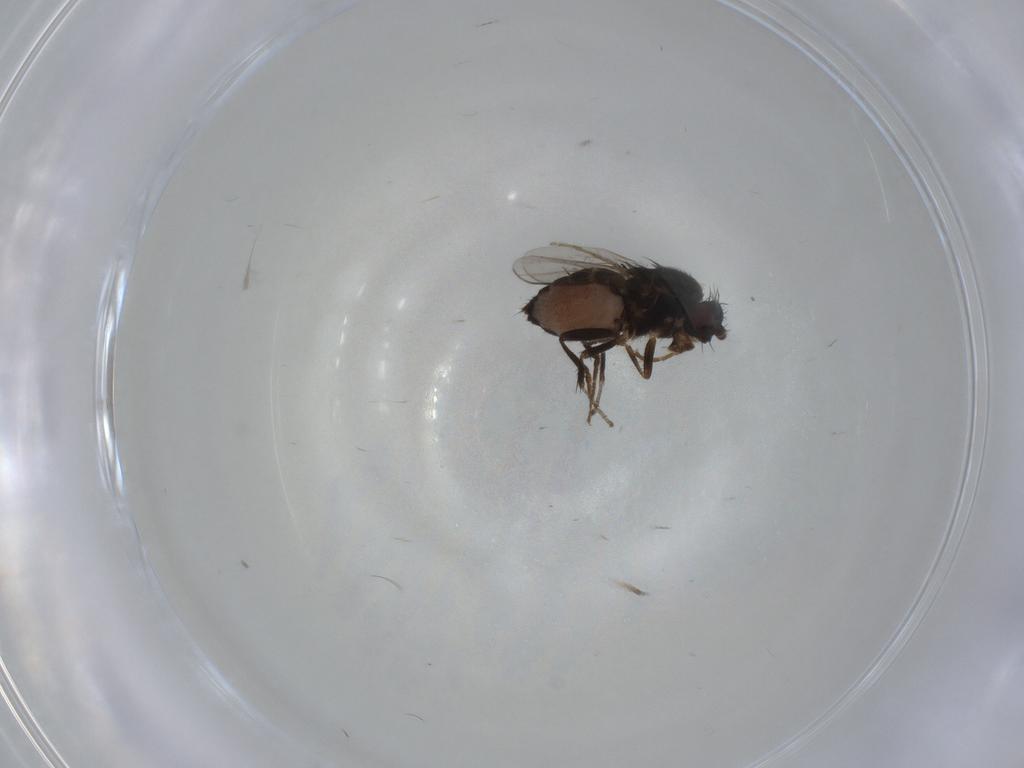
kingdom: Animalia
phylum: Arthropoda
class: Insecta
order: Diptera
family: Sphaeroceridae
